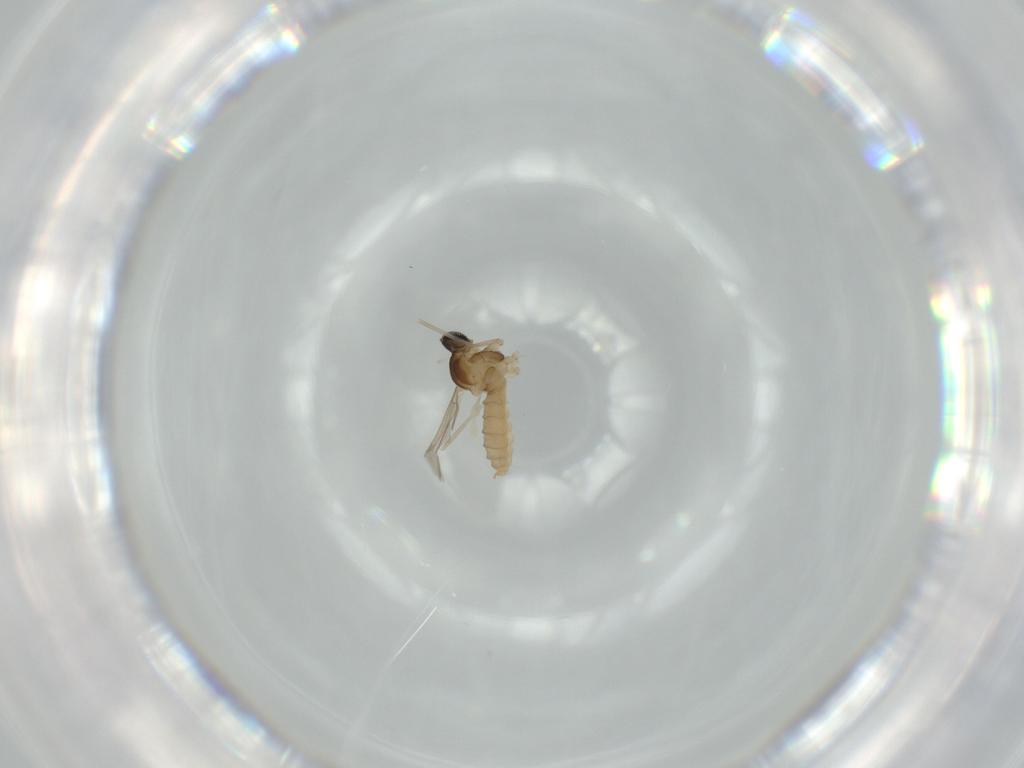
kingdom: Animalia
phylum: Arthropoda
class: Insecta
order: Diptera
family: Cecidomyiidae
